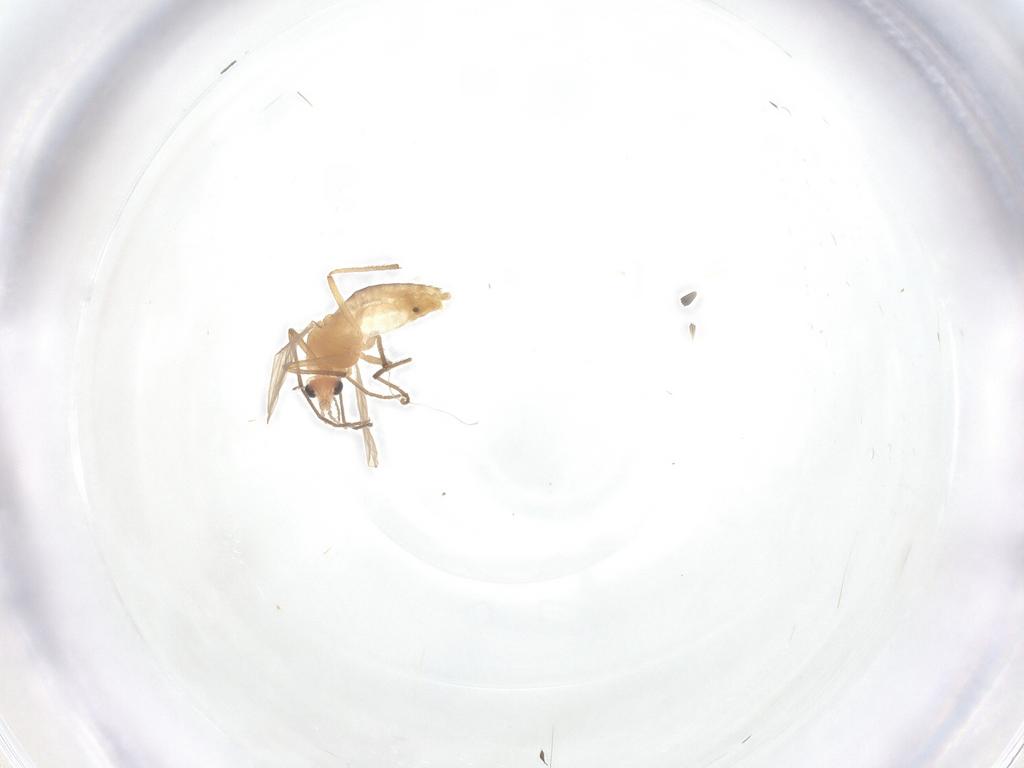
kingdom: Animalia
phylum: Arthropoda
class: Insecta
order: Diptera
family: Chironomidae
